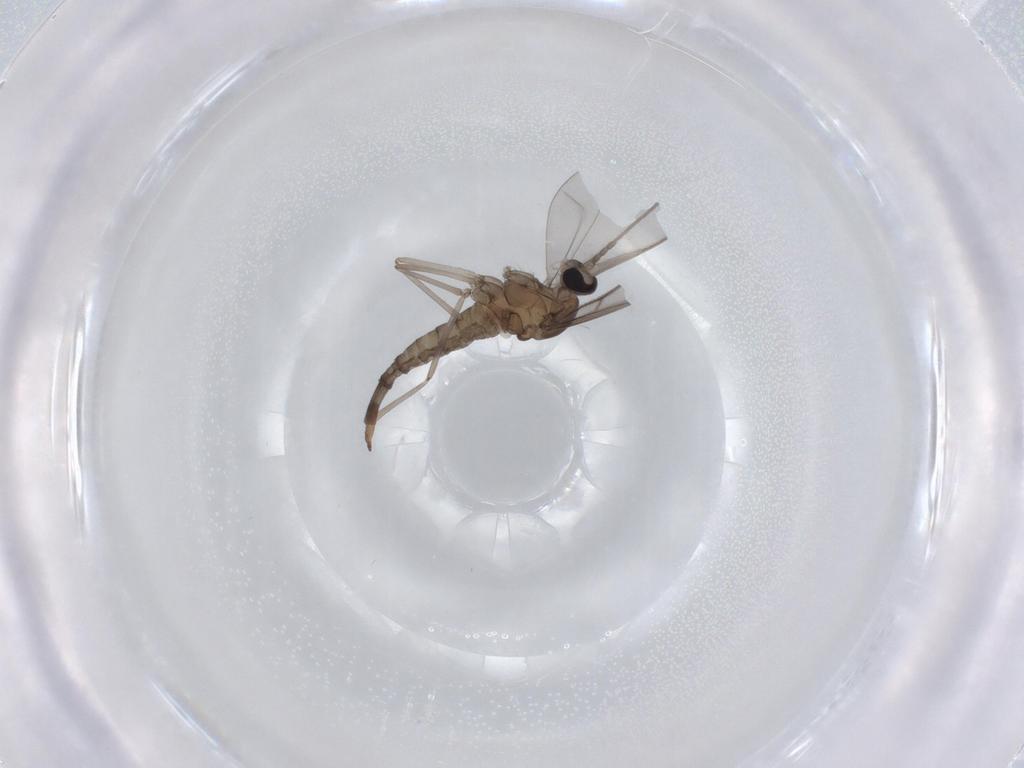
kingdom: Animalia
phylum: Arthropoda
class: Insecta
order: Diptera
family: Cecidomyiidae
